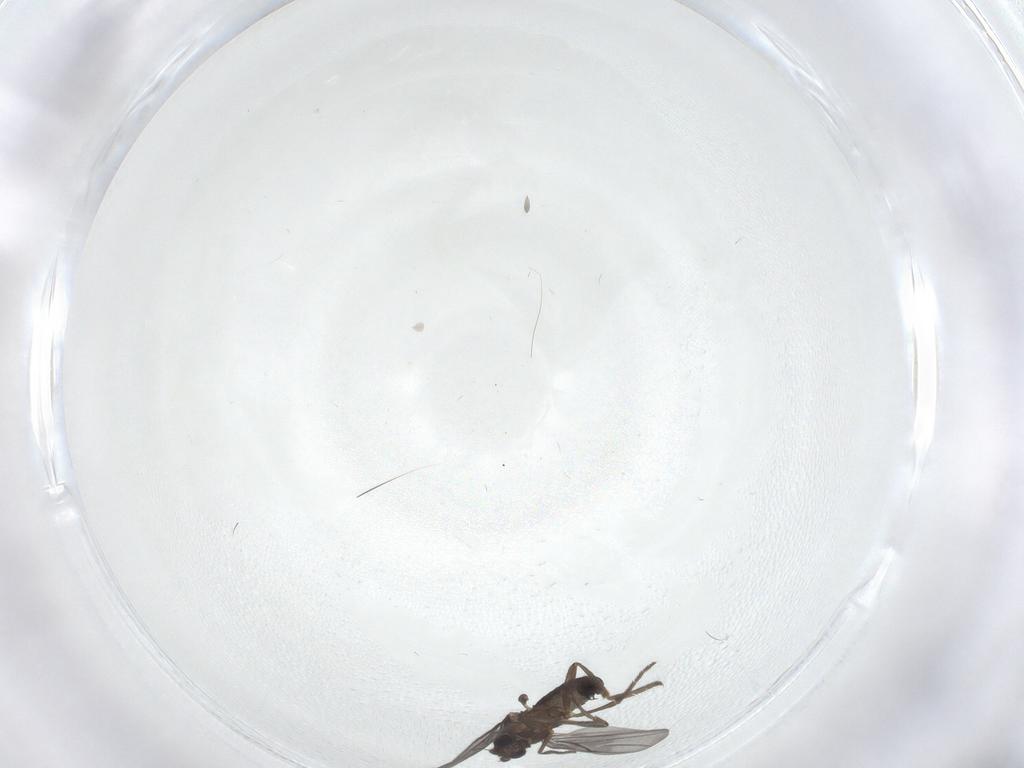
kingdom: Animalia
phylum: Arthropoda
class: Insecta
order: Diptera
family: Phoridae
